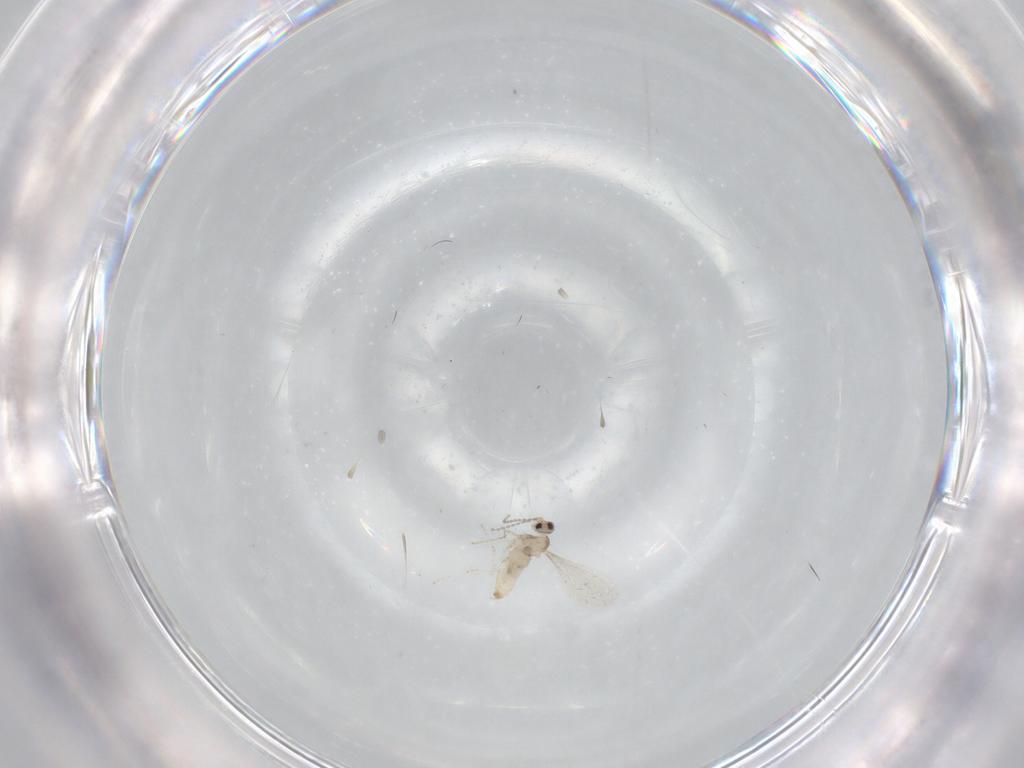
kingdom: Animalia
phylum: Arthropoda
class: Insecta
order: Diptera
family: Cecidomyiidae
